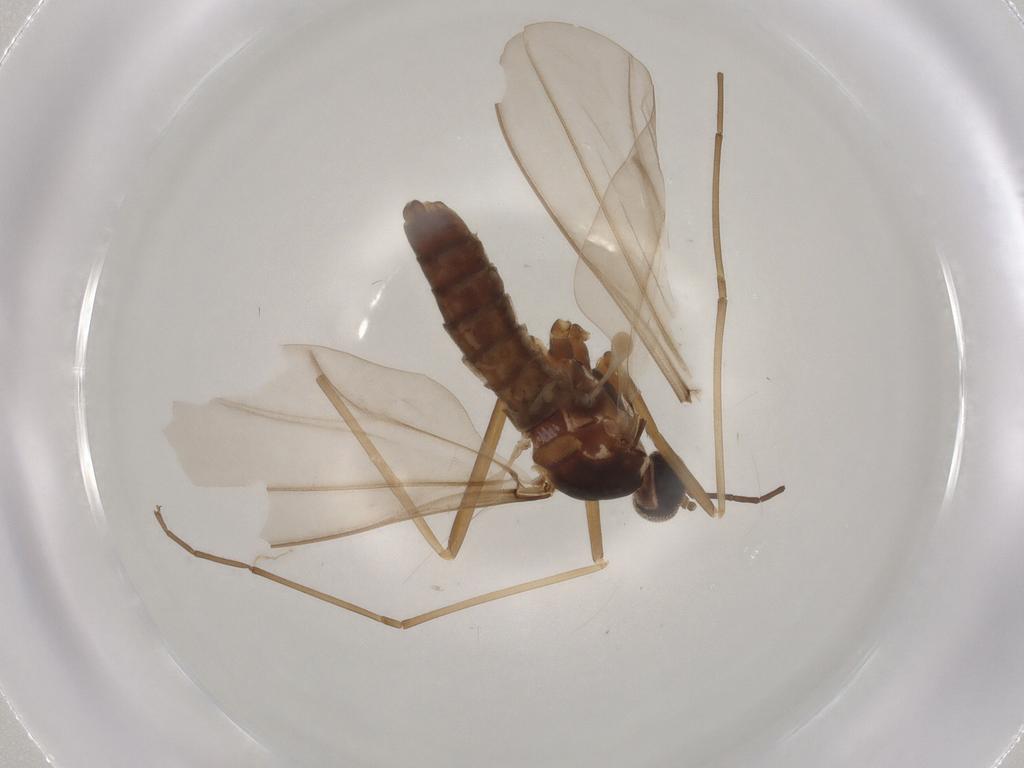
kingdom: Animalia
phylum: Arthropoda
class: Insecta
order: Diptera
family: Cecidomyiidae
